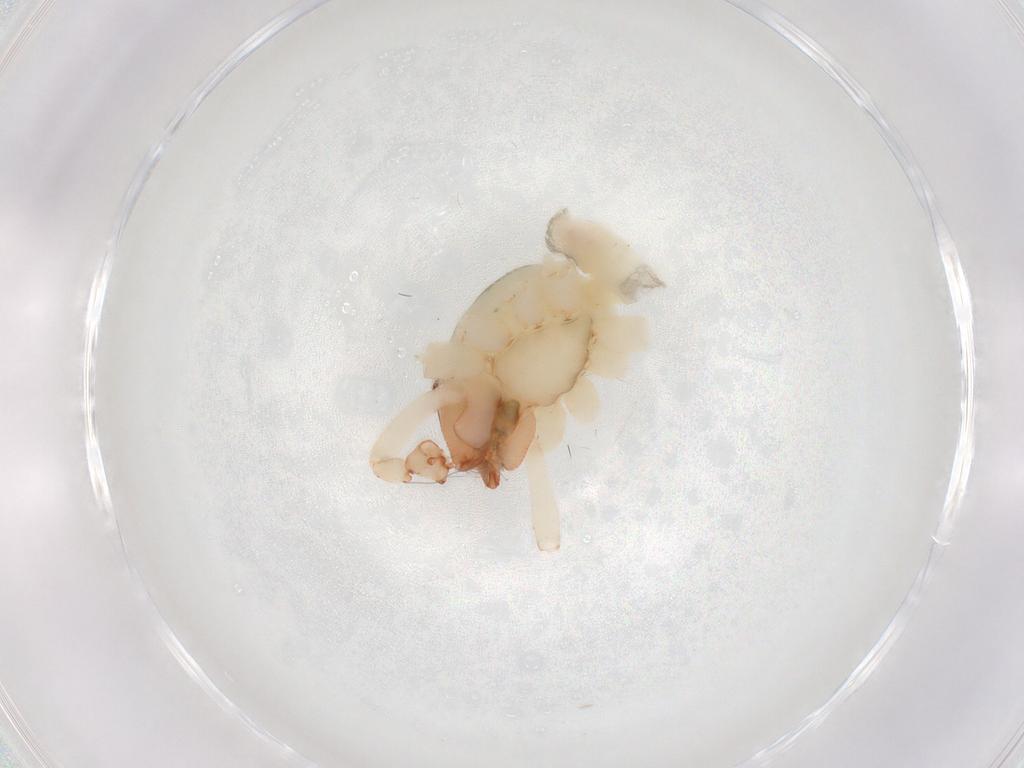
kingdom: Animalia
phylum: Arthropoda
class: Arachnida
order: Araneae
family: Anyphaenidae
